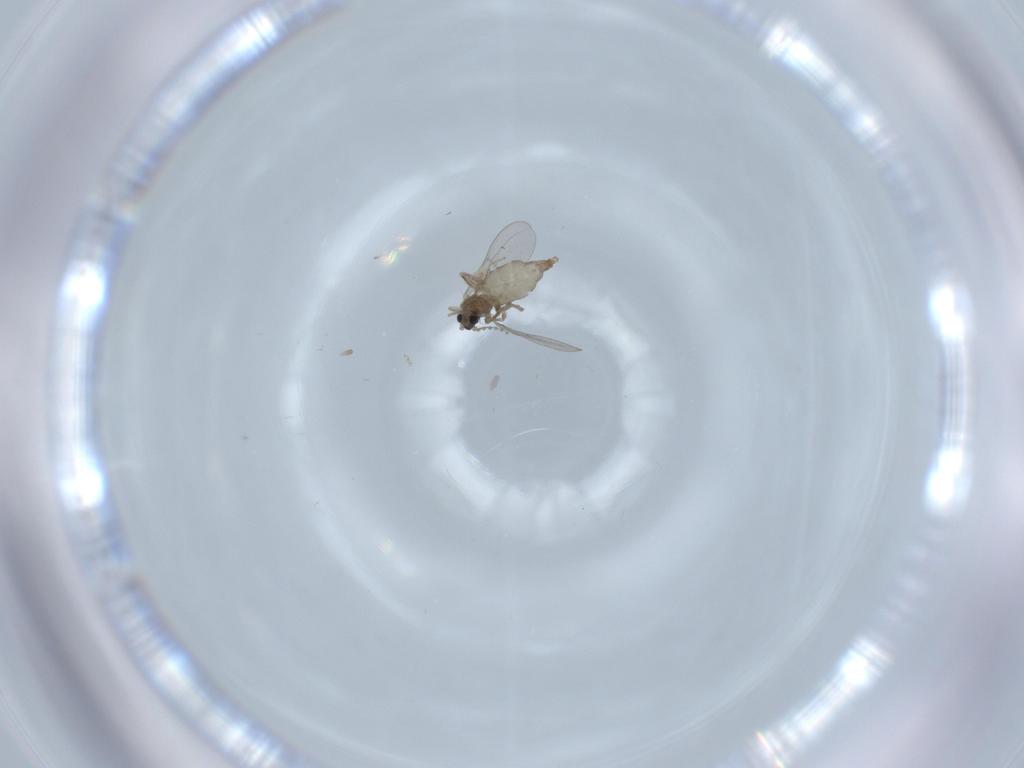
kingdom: Animalia
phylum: Arthropoda
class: Insecta
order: Diptera
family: Cecidomyiidae
